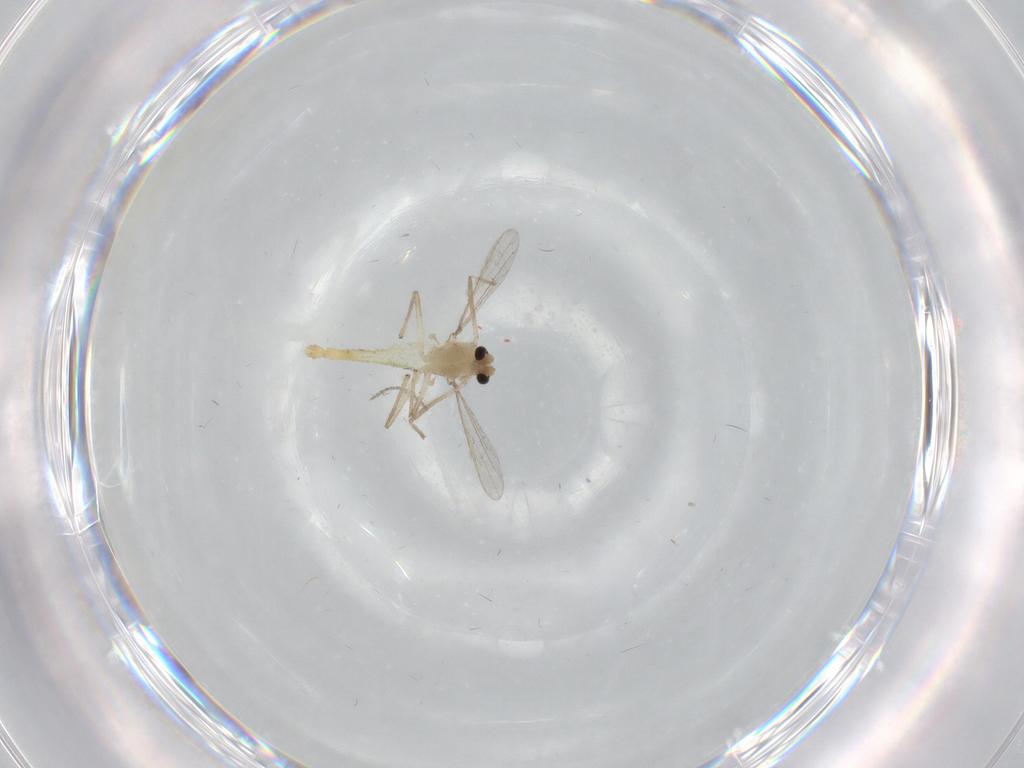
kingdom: Animalia
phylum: Arthropoda
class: Insecta
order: Diptera
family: Chironomidae
